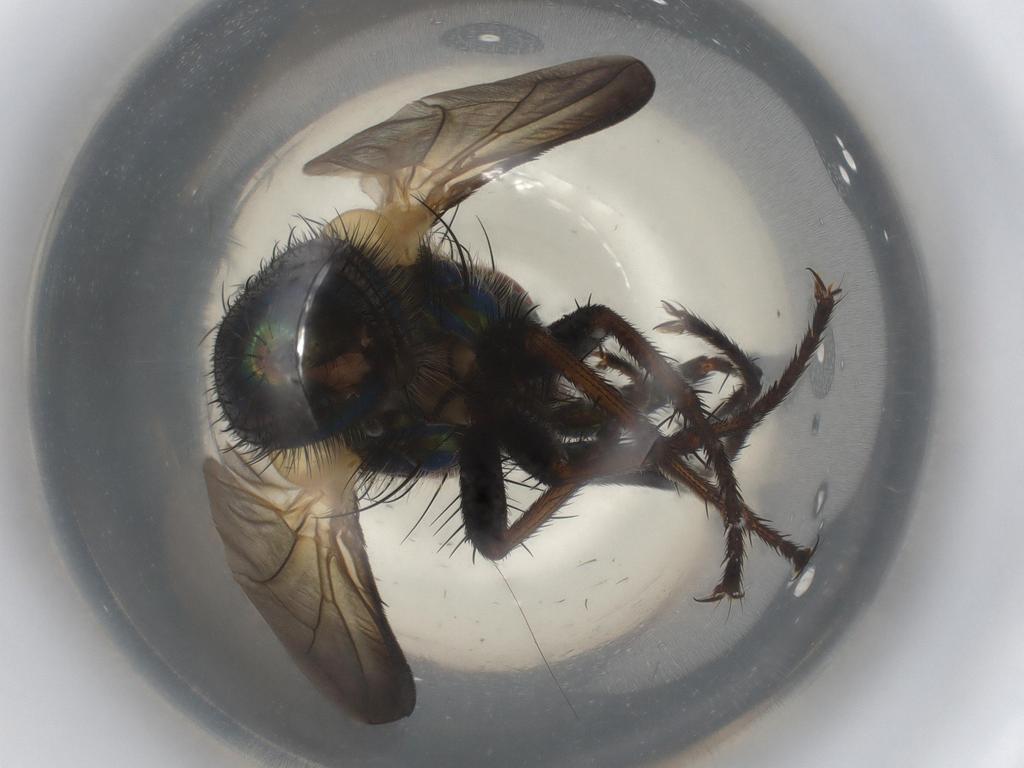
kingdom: Animalia
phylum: Arthropoda
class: Insecta
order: Diptera
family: Calliphoridae
